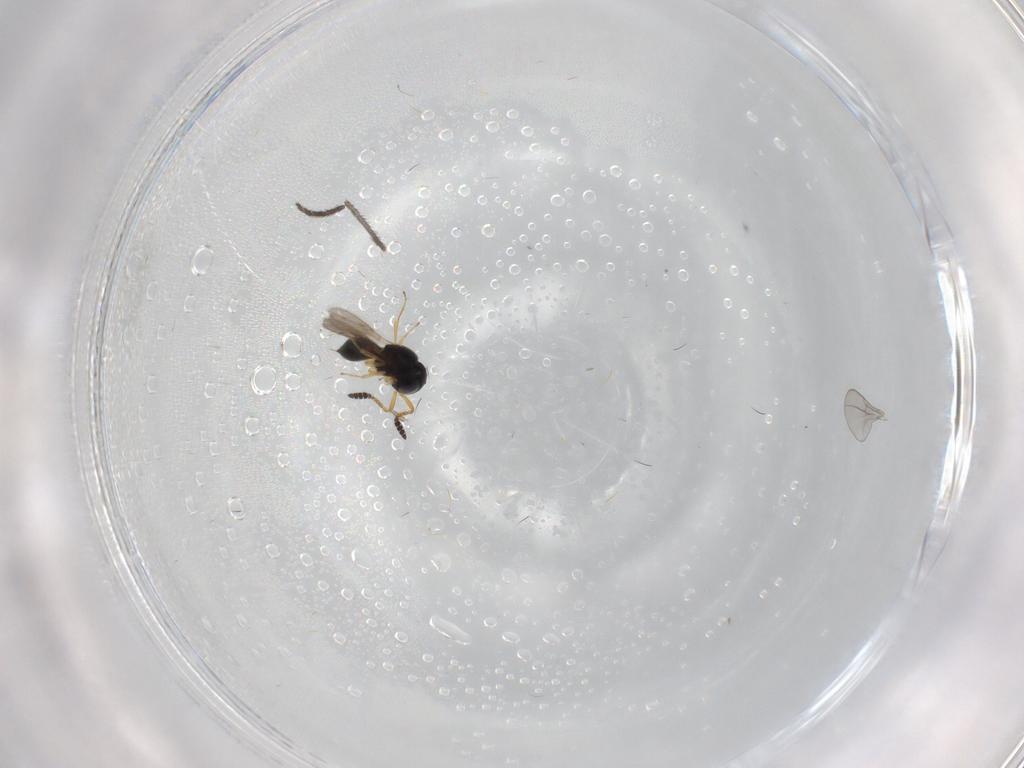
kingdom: Animalia
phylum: Arthropoda
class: Insecta
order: Hymenoptera
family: Scelionidae
